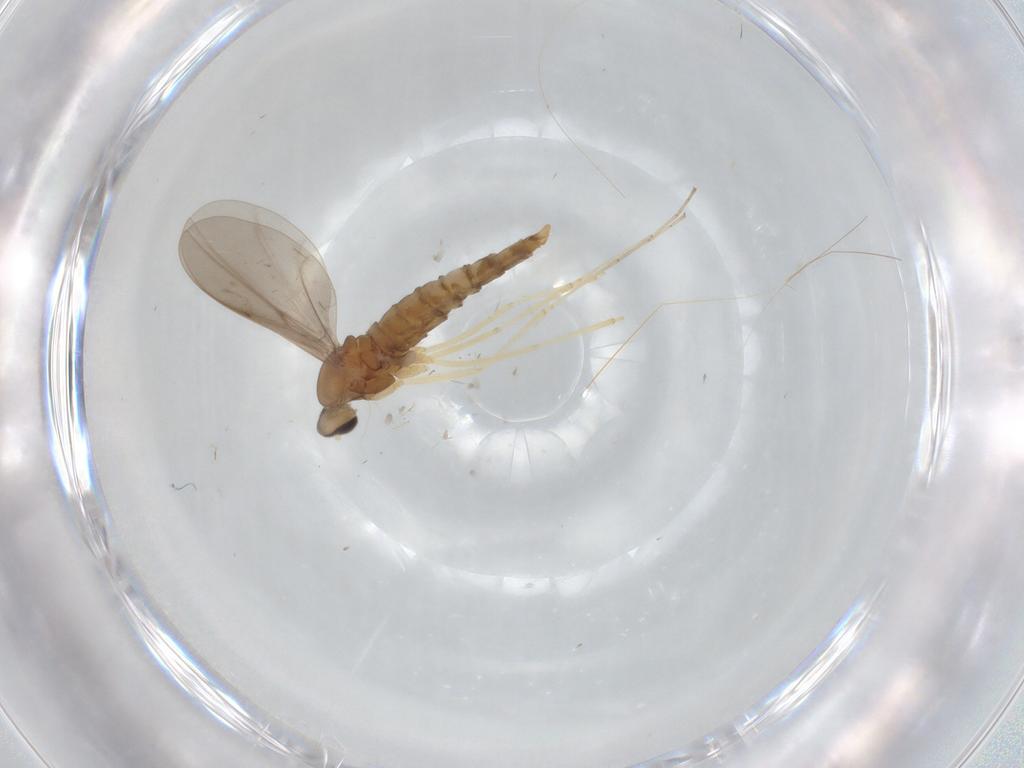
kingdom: Animalia
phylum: Arthropoda
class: Insecta
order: Diptera
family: Cecidomyiidae
